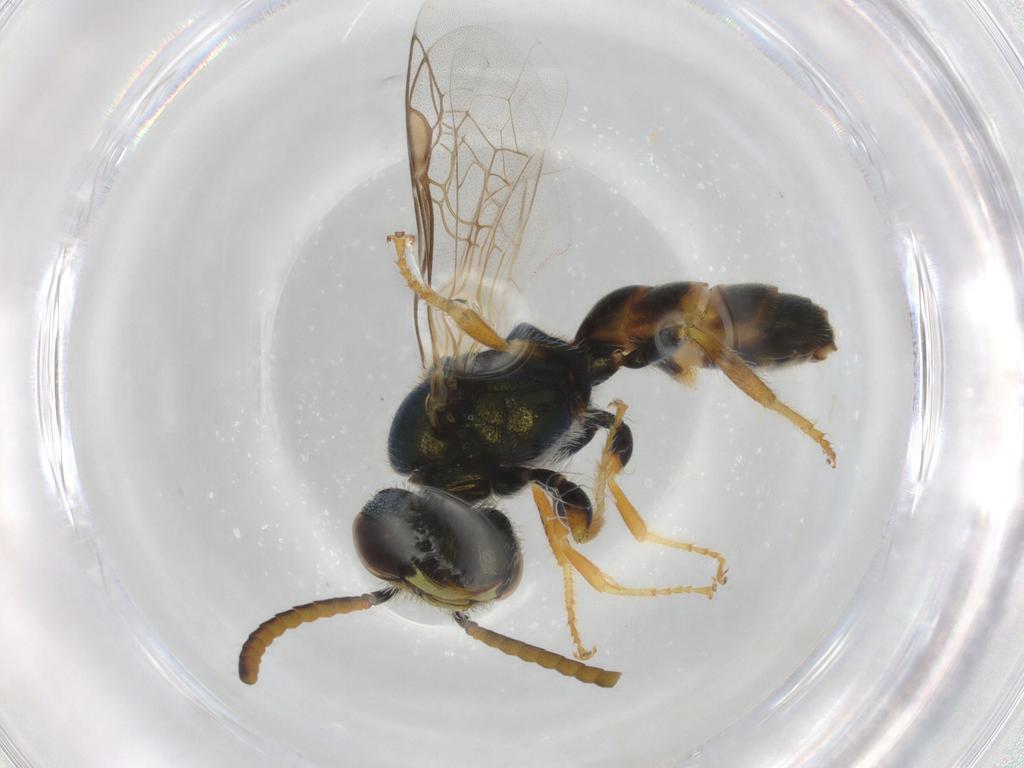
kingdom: Animalia
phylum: Arthropoda
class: Insecta
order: Hymenoptera
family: Halictidae
